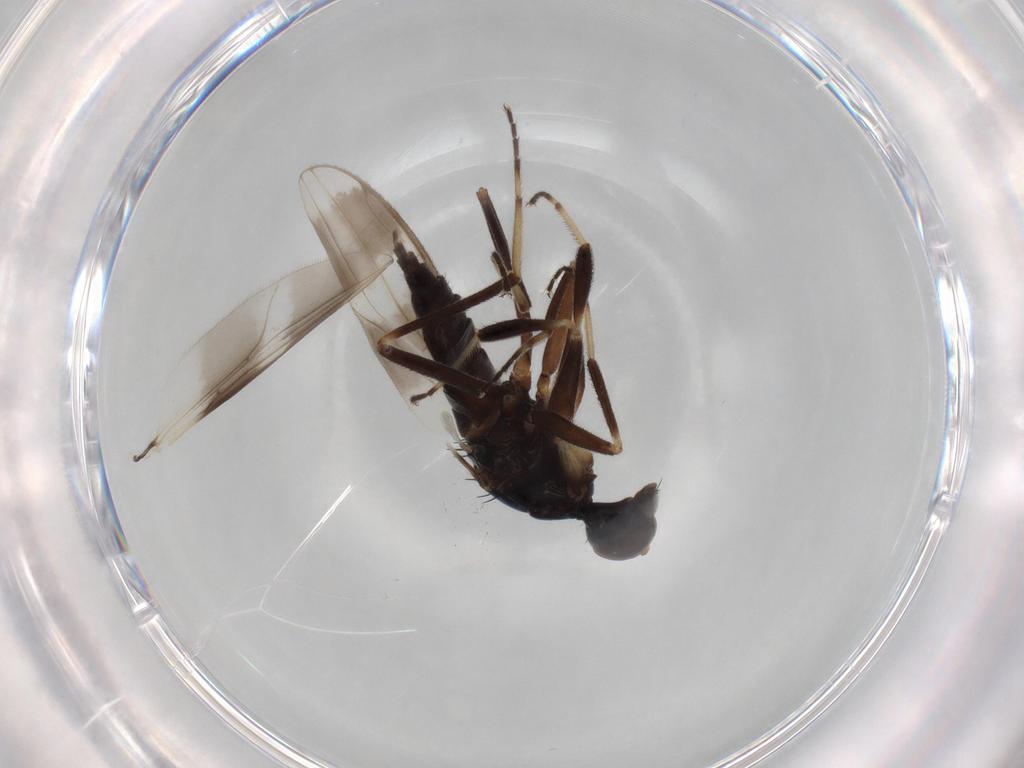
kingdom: Animalia
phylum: Arthropoda
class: Insecta
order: Diptera
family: Hybotidae
